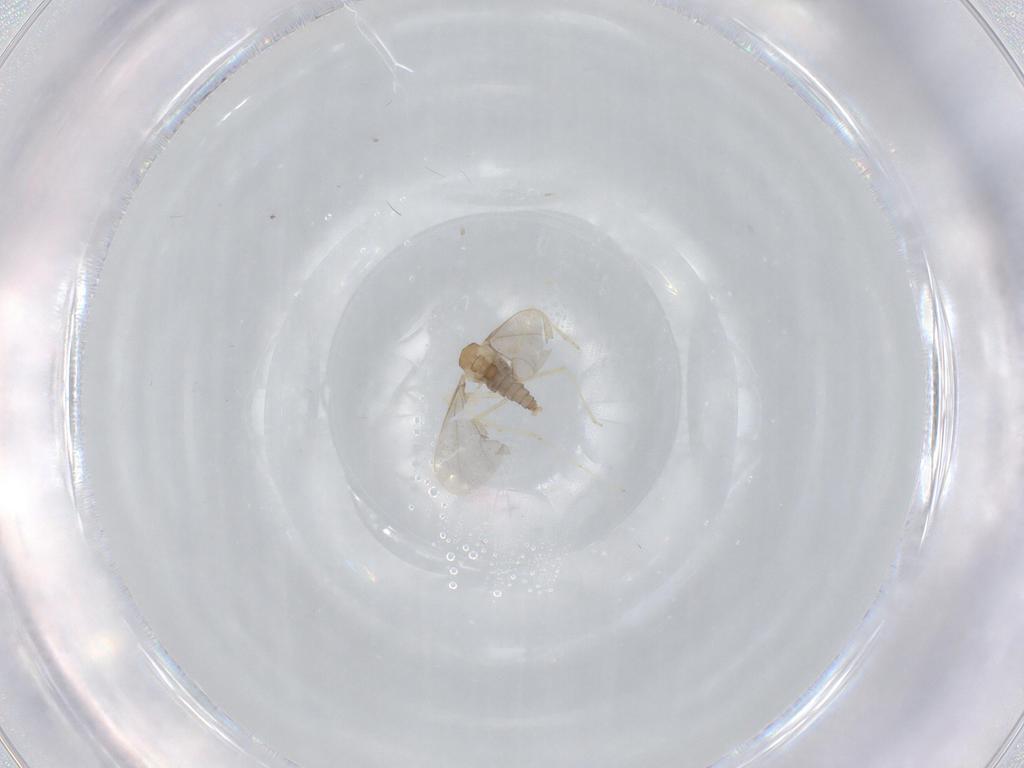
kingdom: Animalia
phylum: Arthropoda
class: Insecta
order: Diptera
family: Cecidomyiidae
